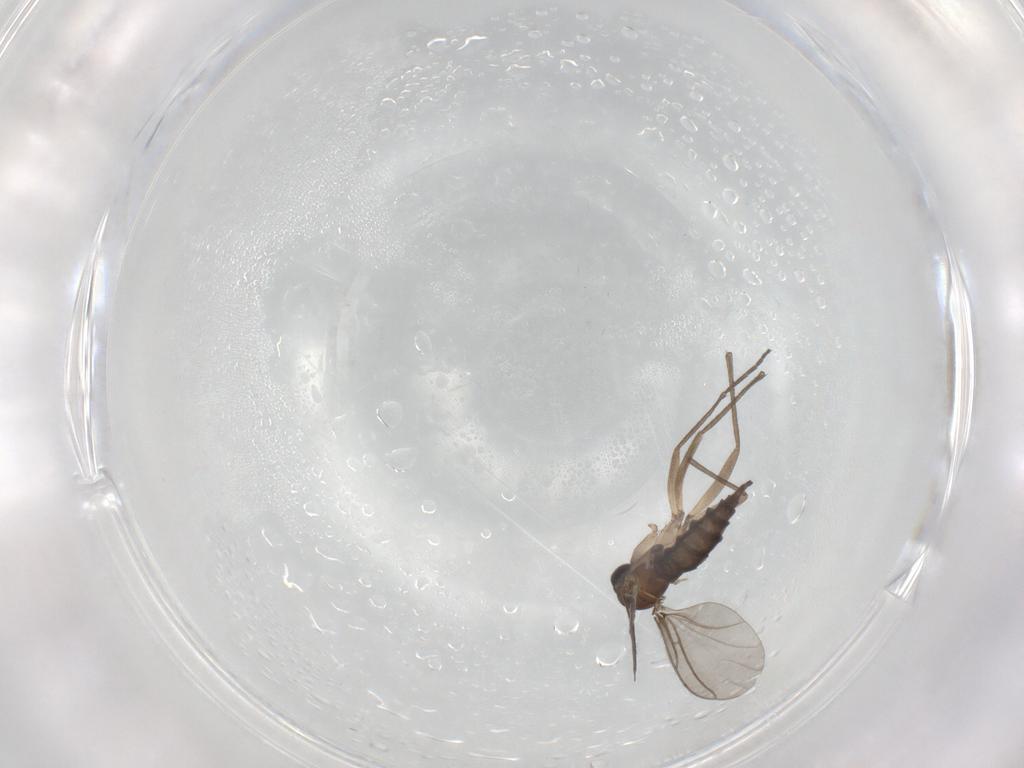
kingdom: Animalia
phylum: Arthropoda
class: Insecta
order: Diptera
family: Sciaridae
